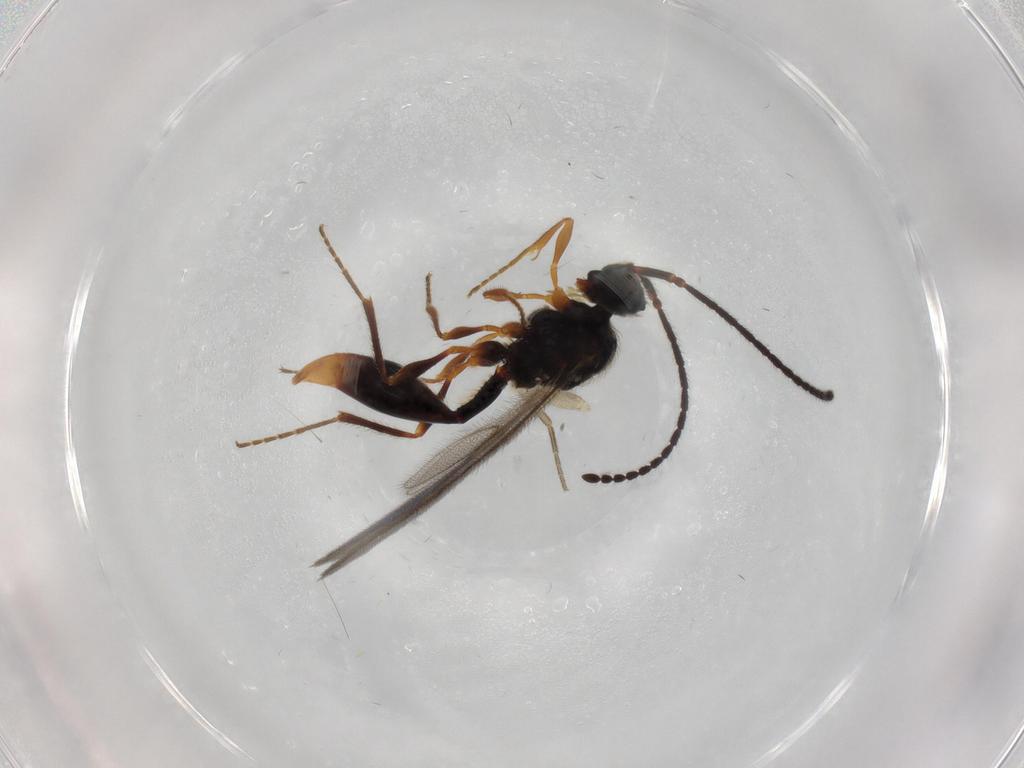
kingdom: Animalia
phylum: Arthropoda
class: Insecta
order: Hymenoptera
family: Diapriidae
